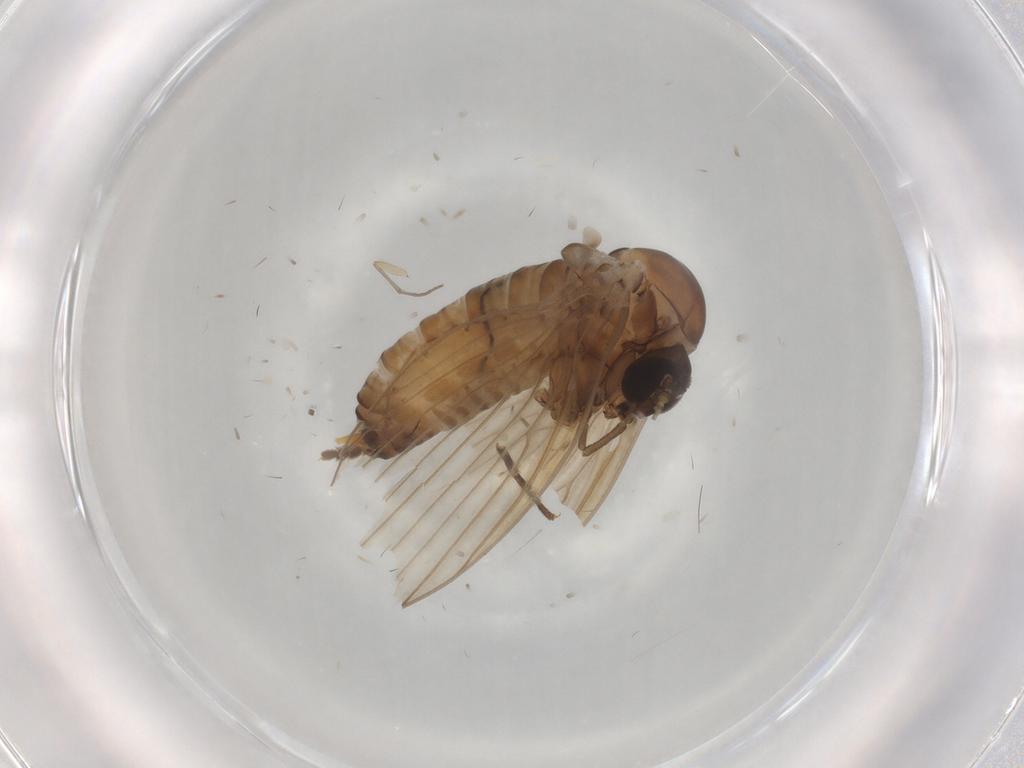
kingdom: Animalia
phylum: Arthropoda
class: Insecta
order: Diptera
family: Psychodidae
